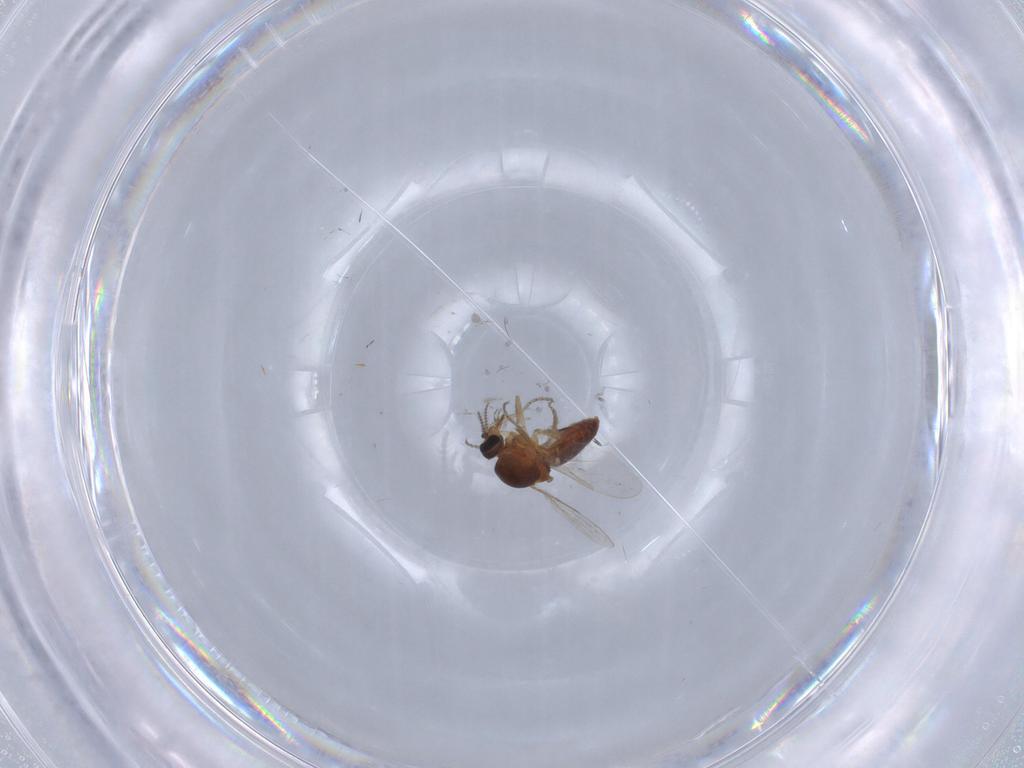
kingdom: Animalia
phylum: Arthropoda
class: Insecta
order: Diptera
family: Ceratopogonidae
